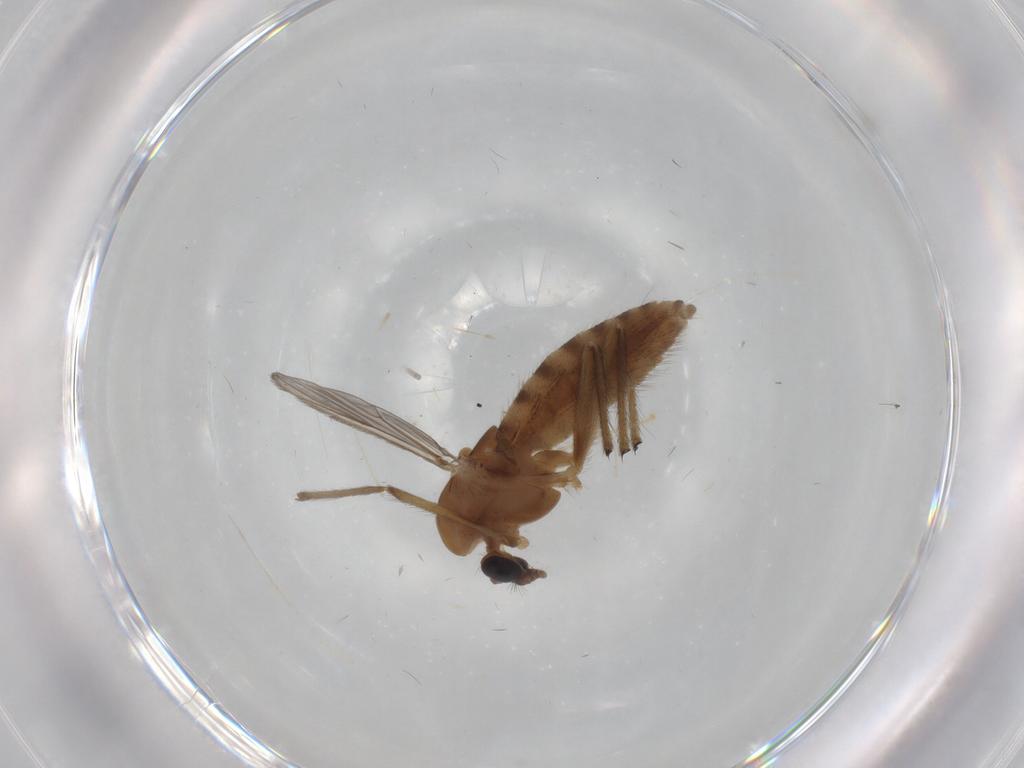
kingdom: Animalia
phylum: Arthropoda
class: Insecta
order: Diptera
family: Chironomidae
